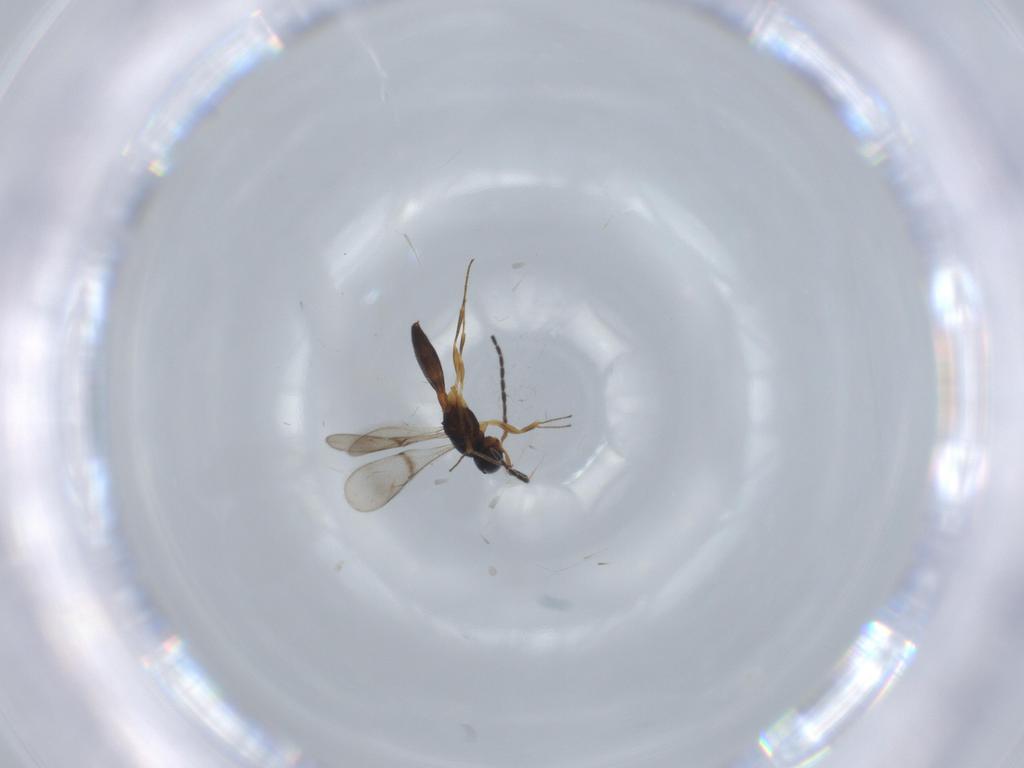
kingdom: Animalia
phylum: Arthropoda
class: Insecta
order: Hymenoptera
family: Scelionidae
